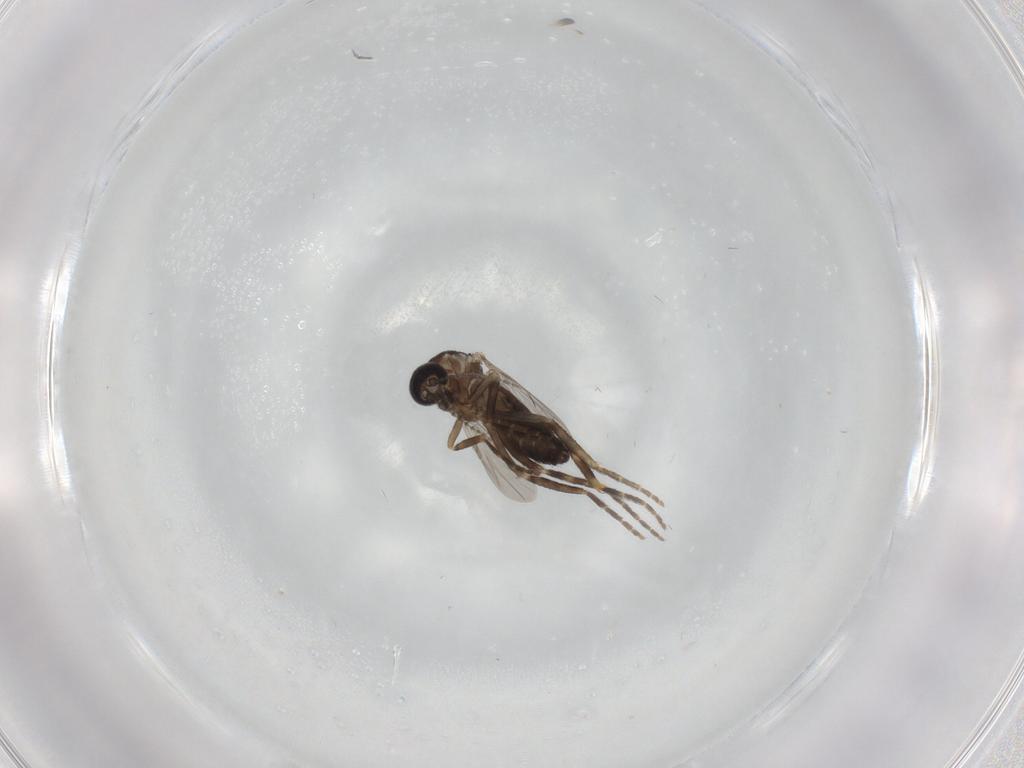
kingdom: Animalia
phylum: Arthropoda
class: Insecta
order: Diptera
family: Ceratopogonidae
